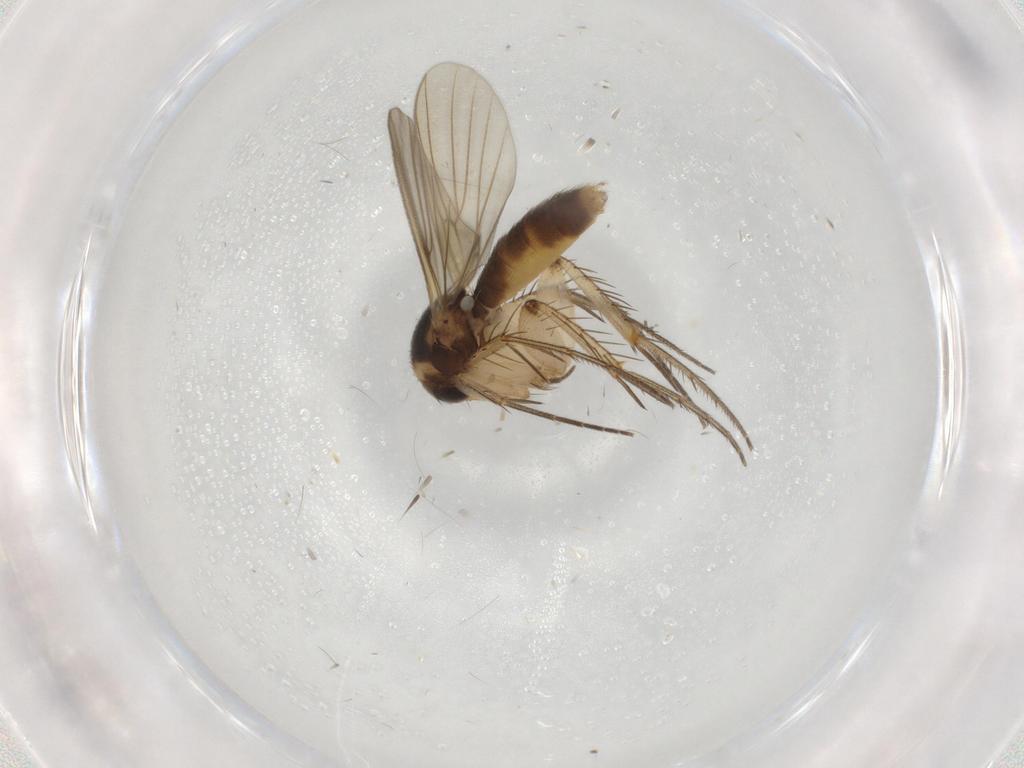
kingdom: Animalia
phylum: Arthropoda
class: Insecta
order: Diptera
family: Mycetophilidae
